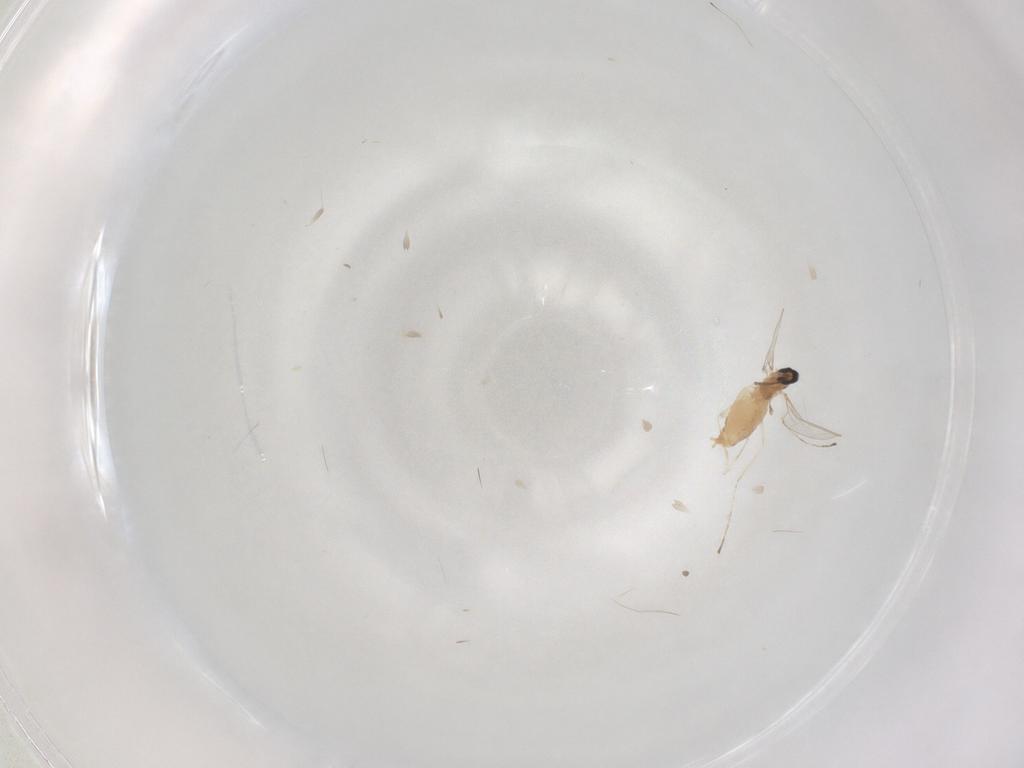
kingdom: Animalia
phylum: Arthropoda
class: Insecta
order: Diptera
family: Cecidomyiidae
